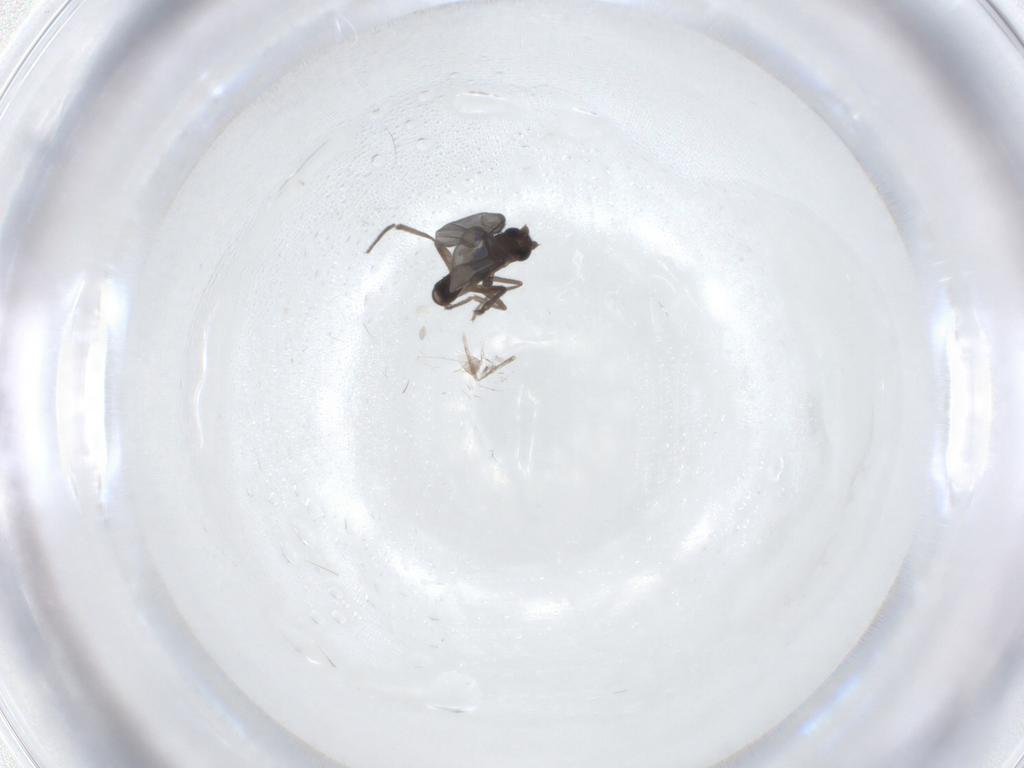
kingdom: Animalia
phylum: Arthropoda
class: Insecta
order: Diptera
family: Phoridae
